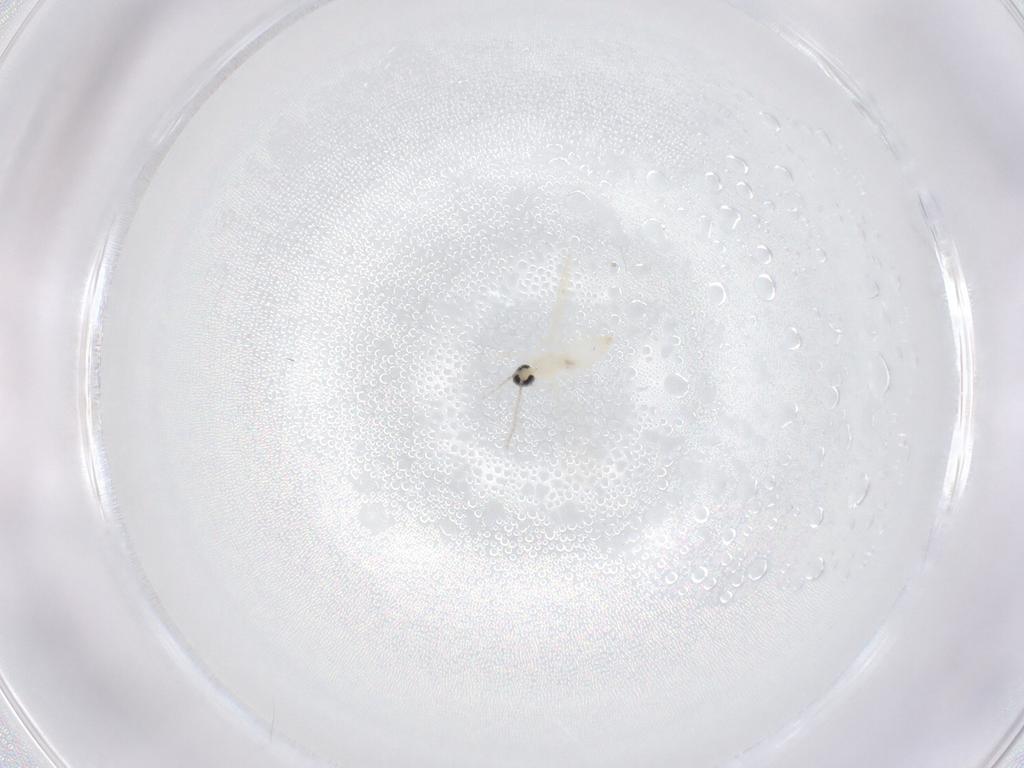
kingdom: Animalia
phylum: Arthropoda
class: Insecta
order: Diptera
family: Cecidomyiidae
